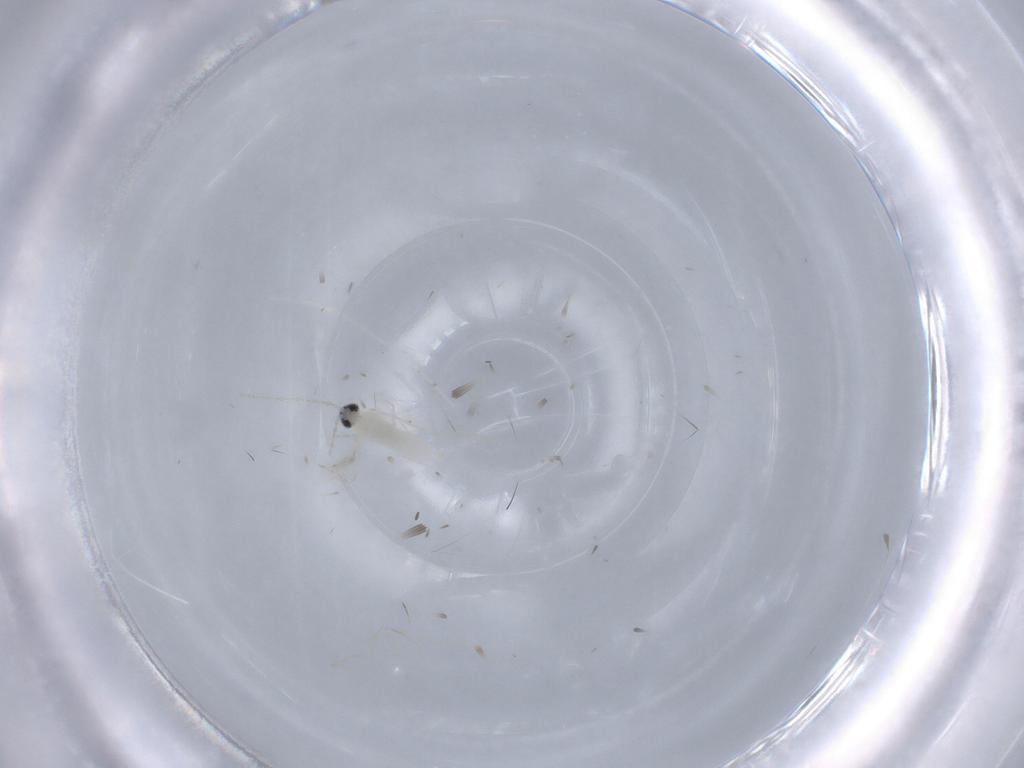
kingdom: Animalia
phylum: Arthropoda
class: Insecta
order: Diptera
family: Cecidomyiidae
